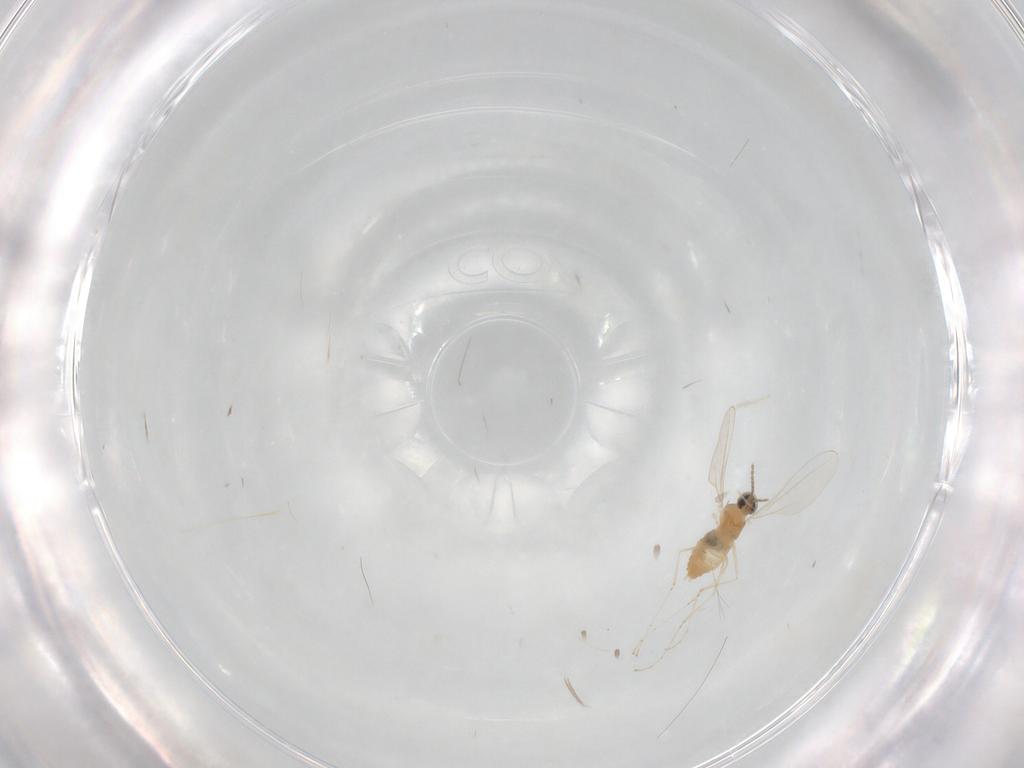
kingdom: Animalia
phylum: Arthropoda
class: Insecta
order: Diptera
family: Cecidomyiidae
